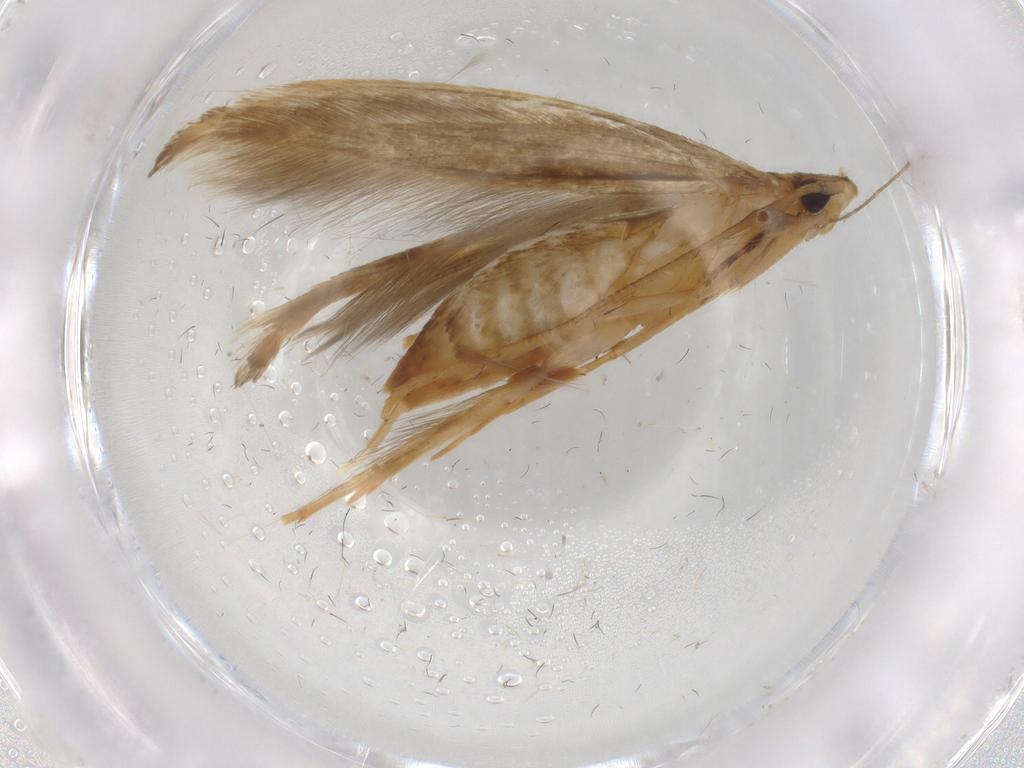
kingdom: Animalia
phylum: Arthropoda
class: Insecta
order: Lepidoptera
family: Tineidae
